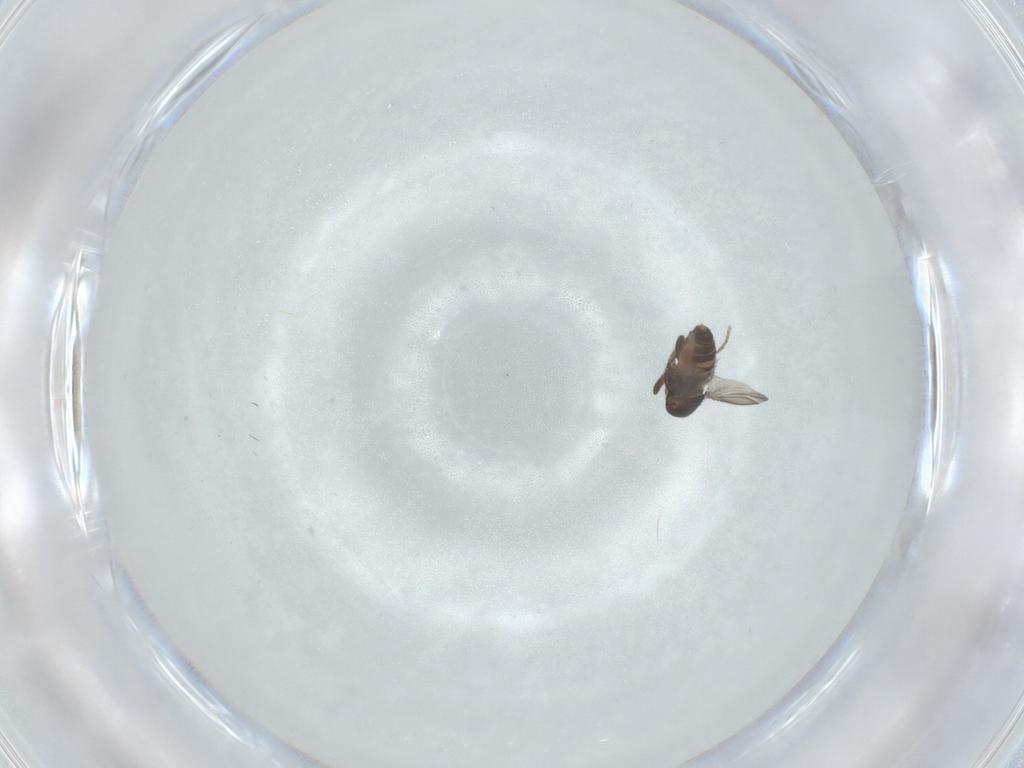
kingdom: Animalia
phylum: Arthropoda
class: Insecta
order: Diptera
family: Sphaeroceridae
